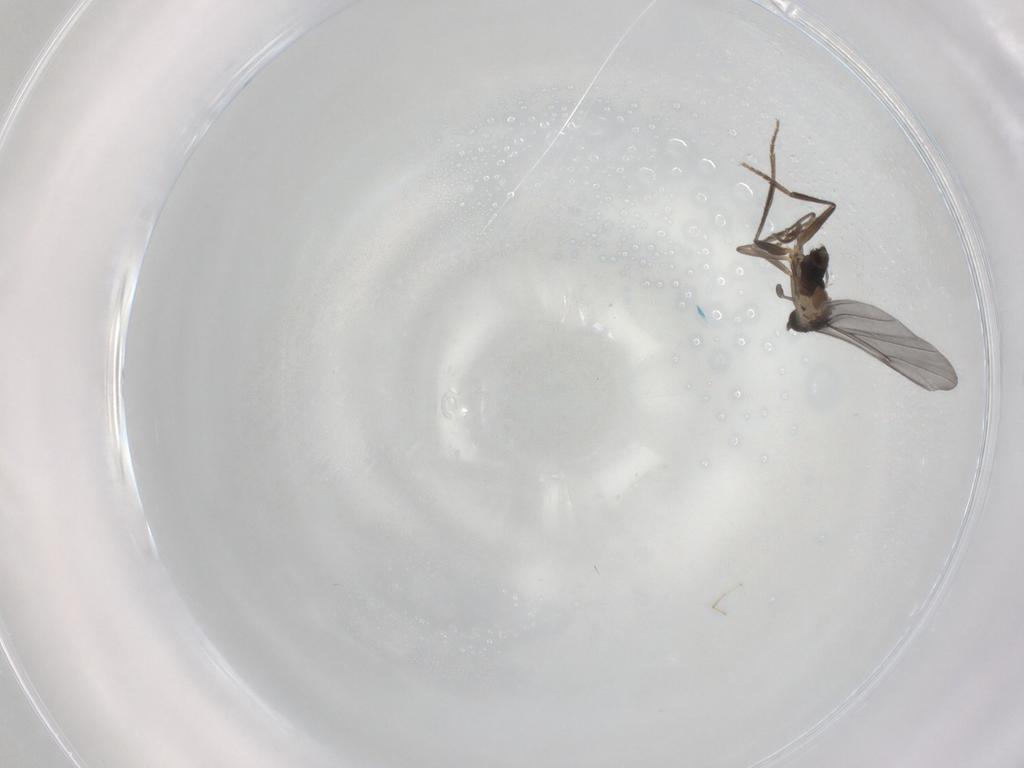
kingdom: Animalia
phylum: Arthropoda
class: Insecta
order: Diptera
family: Phoridae
